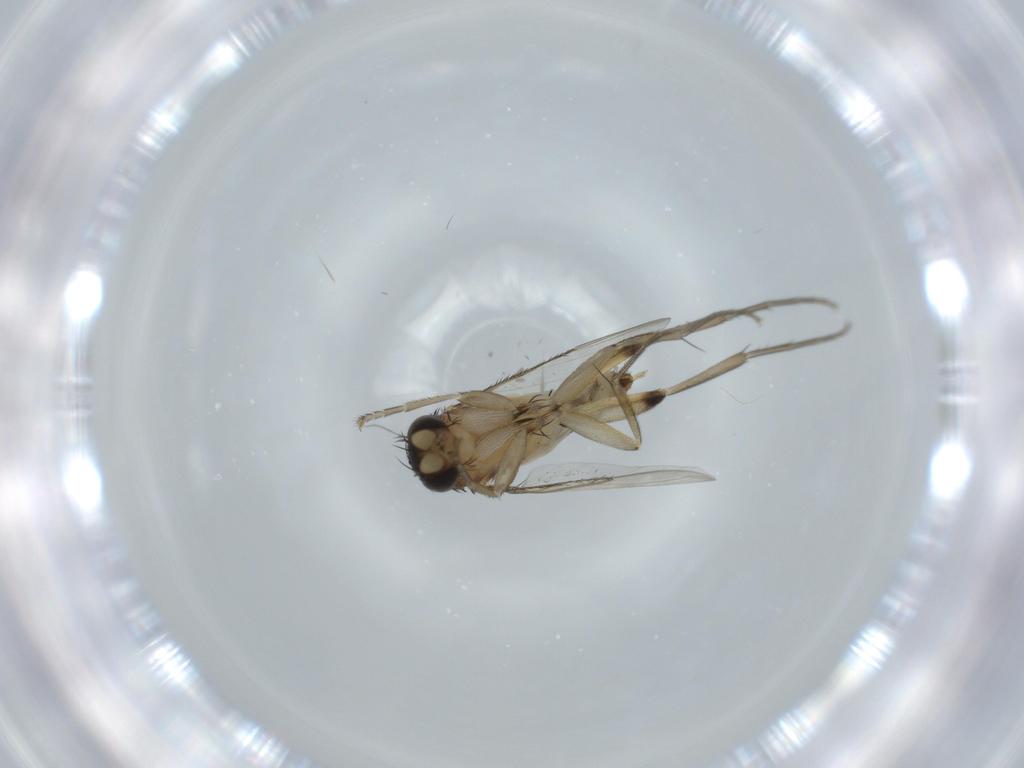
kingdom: Animalia
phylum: Arthropoda
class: Insecta
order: Diptera
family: Phoridae
